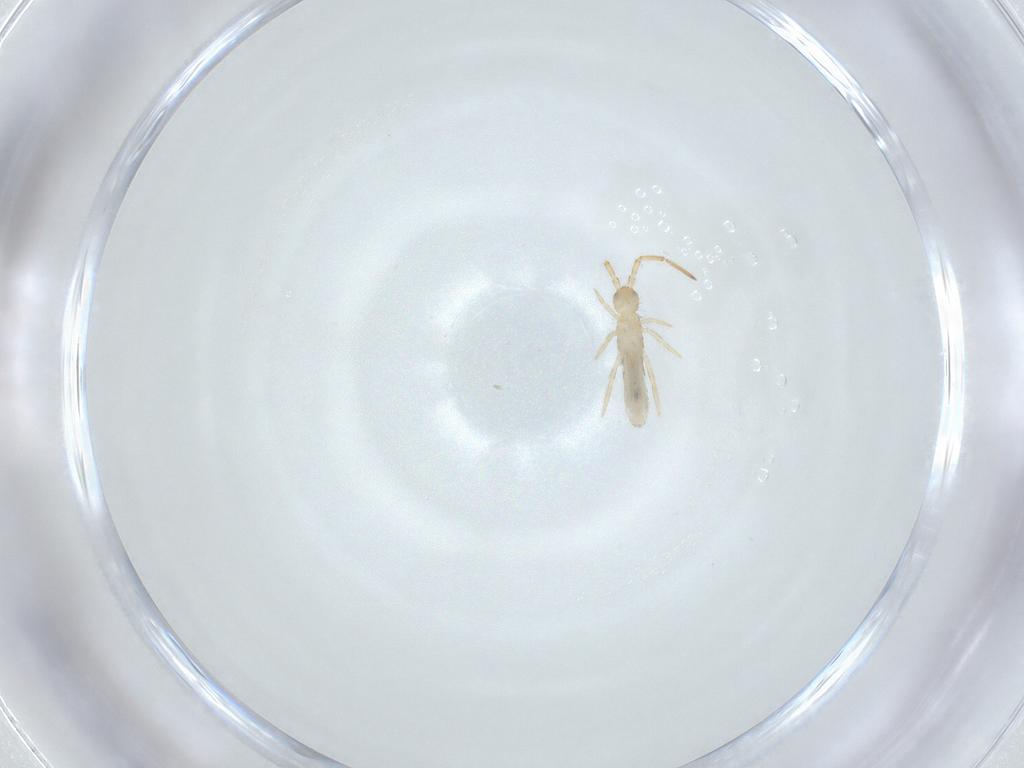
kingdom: Animalia
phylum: Arthropoda
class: Collembola
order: Entomobryomorpha
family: Entomobryidae
